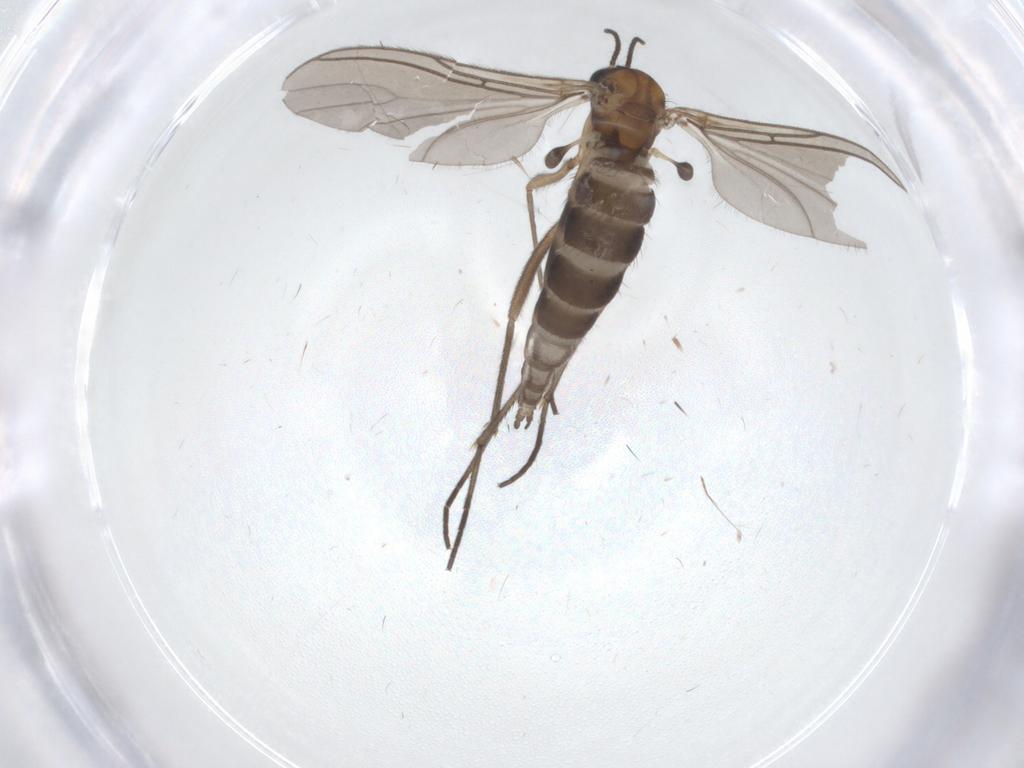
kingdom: Animalia
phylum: Arthropoda
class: Insecta
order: Diptera
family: Sciaridae
